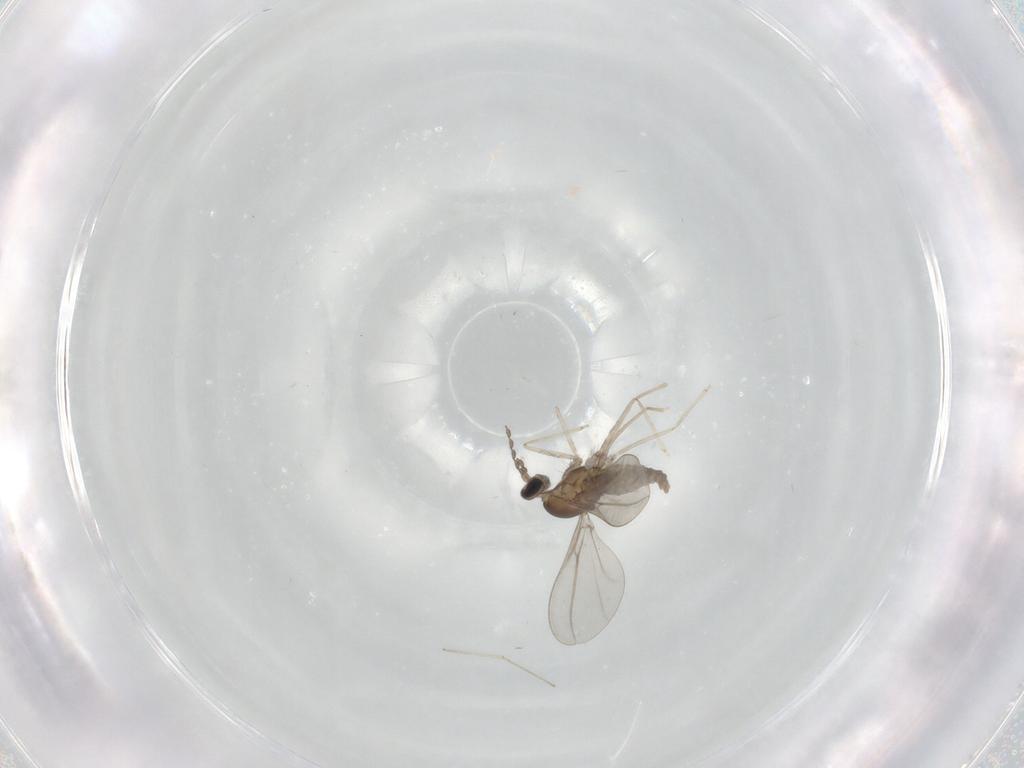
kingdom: Animalia
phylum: Arthropoda
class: Insecta
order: Diptera
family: Cecidomyiidae
